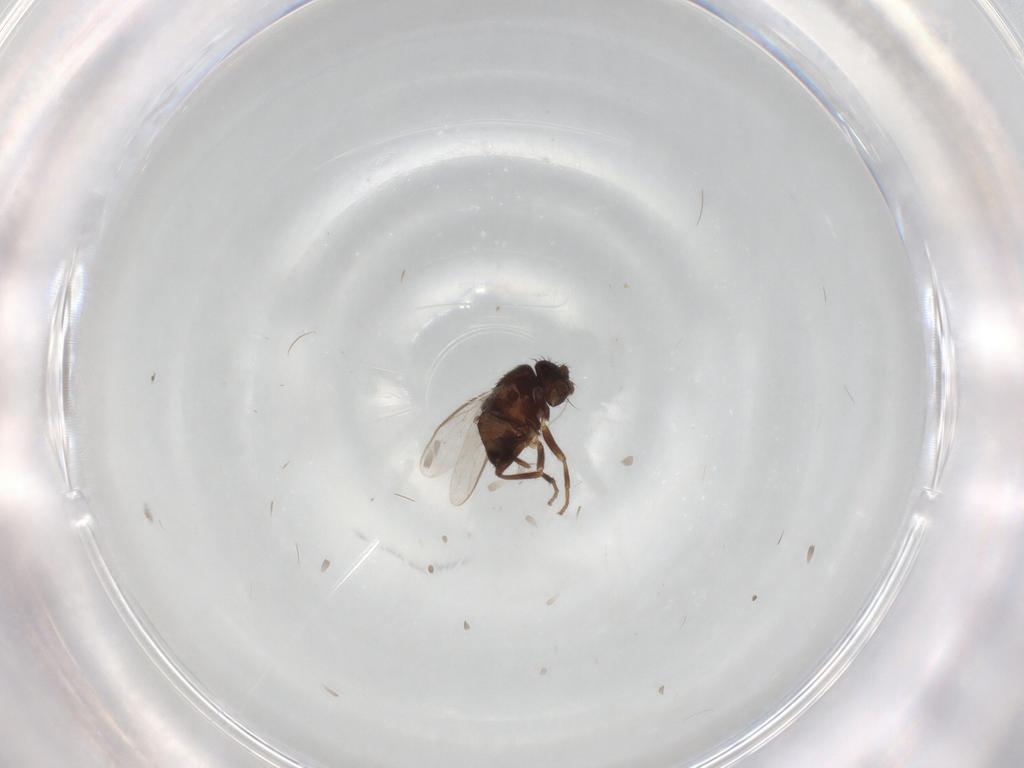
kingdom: Animalia
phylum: Arthropoda
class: Insecta
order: Diptera
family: Sphaeroceridae
